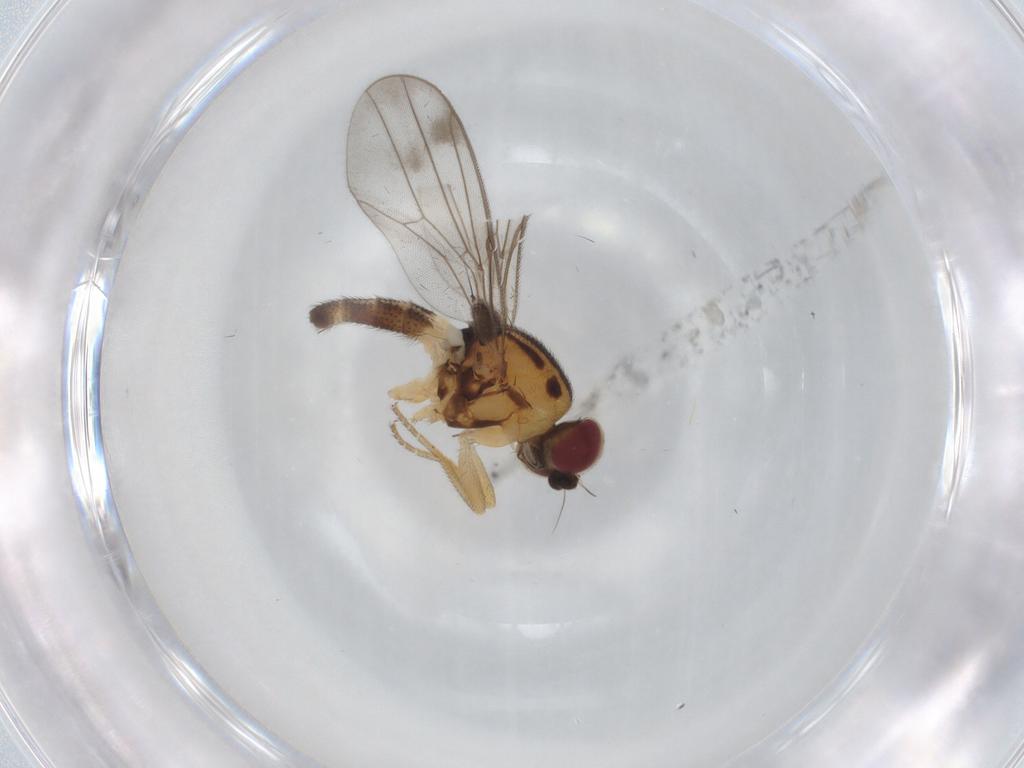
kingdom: Animalia
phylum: Arthropoda
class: Insecta
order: Diptera
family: Chloropidae
